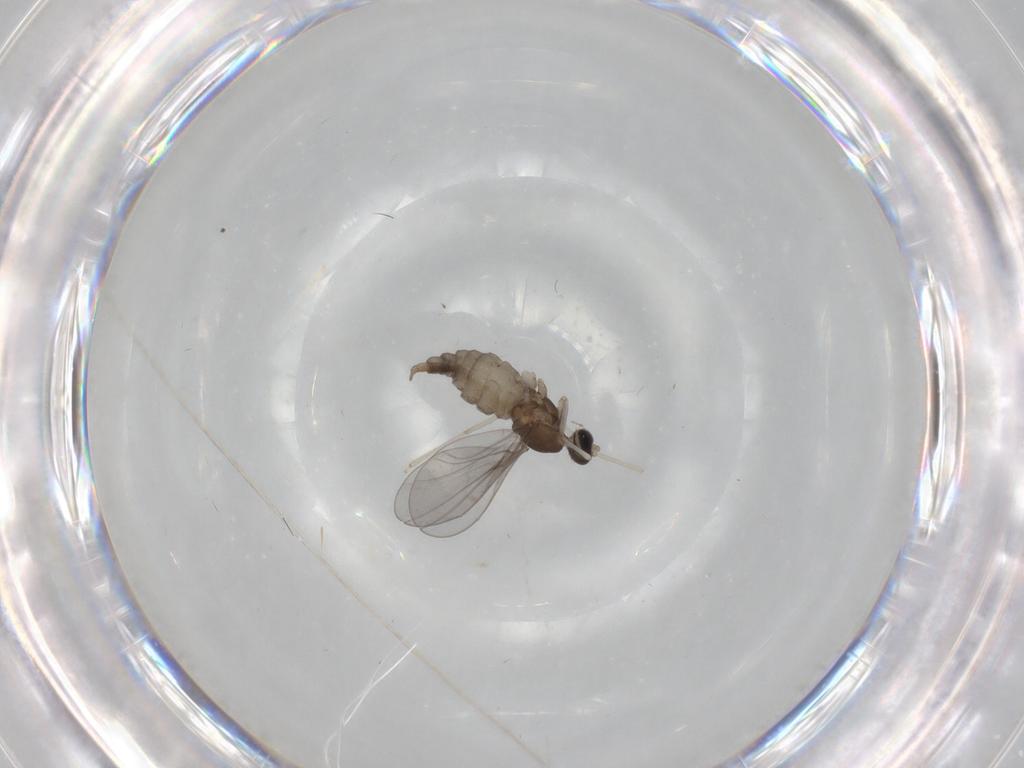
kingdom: Animalia
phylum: Arthropoda
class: Insecta
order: Diptera
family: Cecidomyiidae
